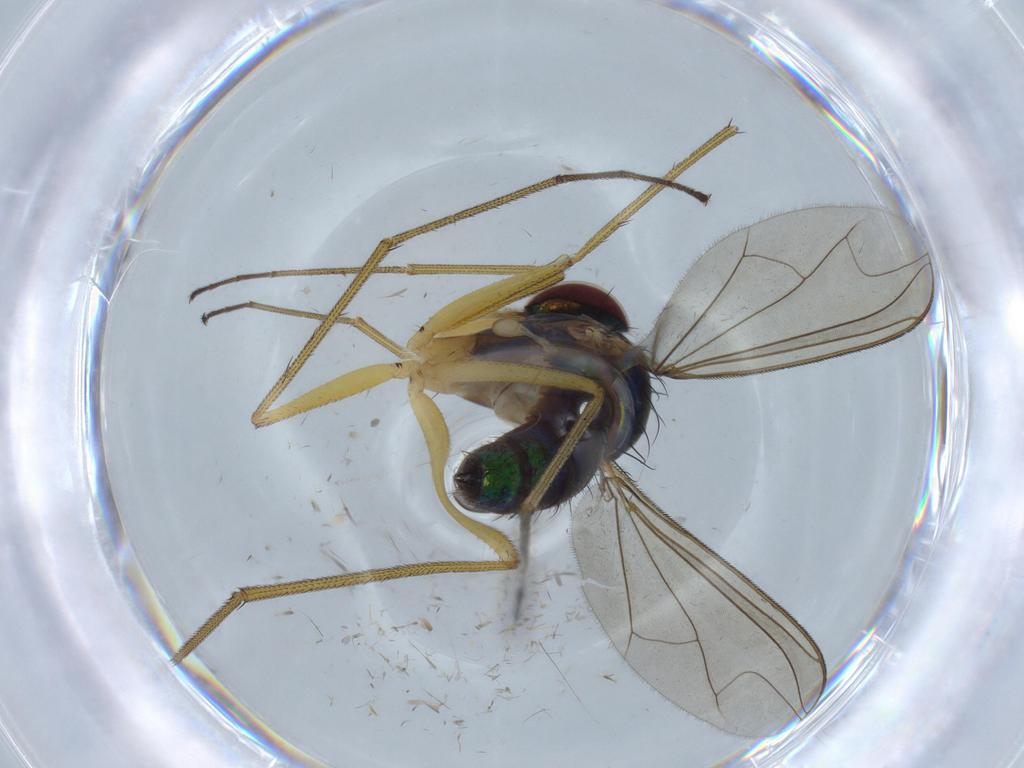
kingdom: Animalia
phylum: Arthropoda
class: Insecta
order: Diptera
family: Dolichopodidae
